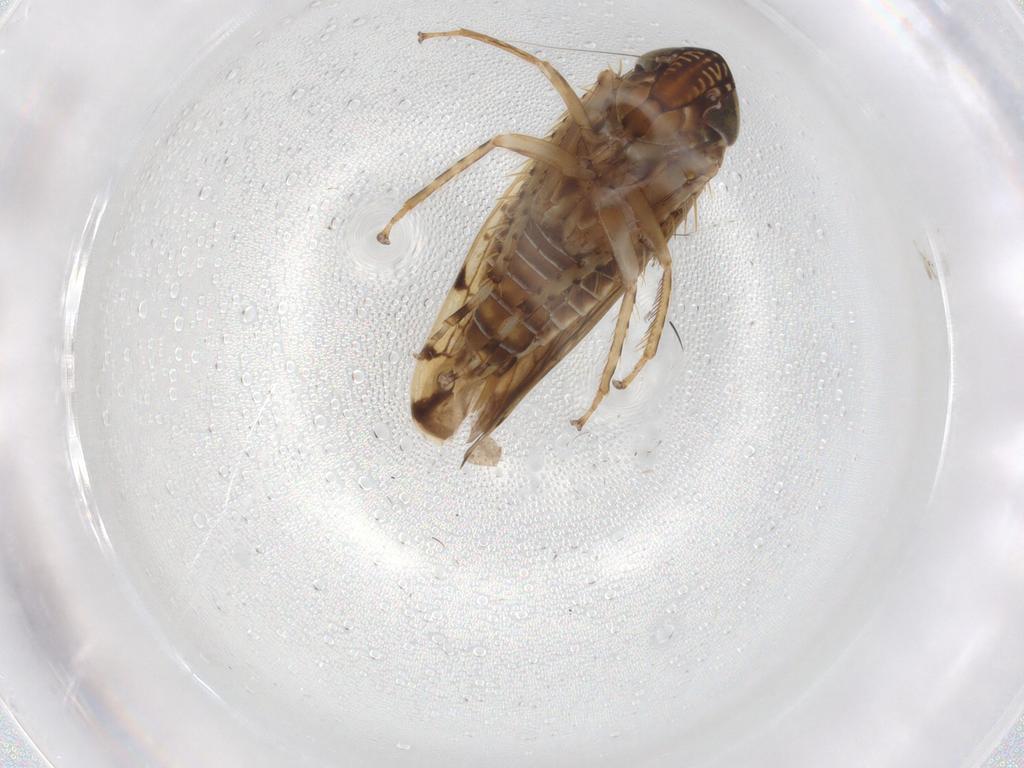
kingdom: Animalia
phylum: Arthropoda
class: Insecta
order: Hemiptera
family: Cicadellidae
